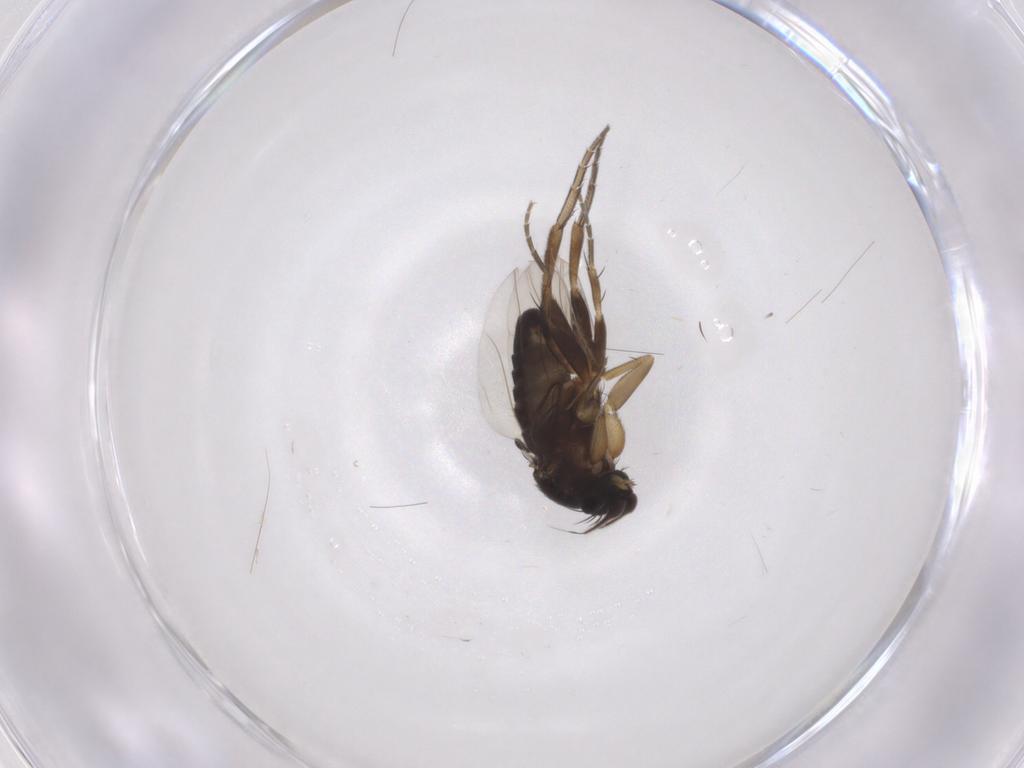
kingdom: Animalia
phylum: Arthropoda
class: Insecta
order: Diptera
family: Phoridae
